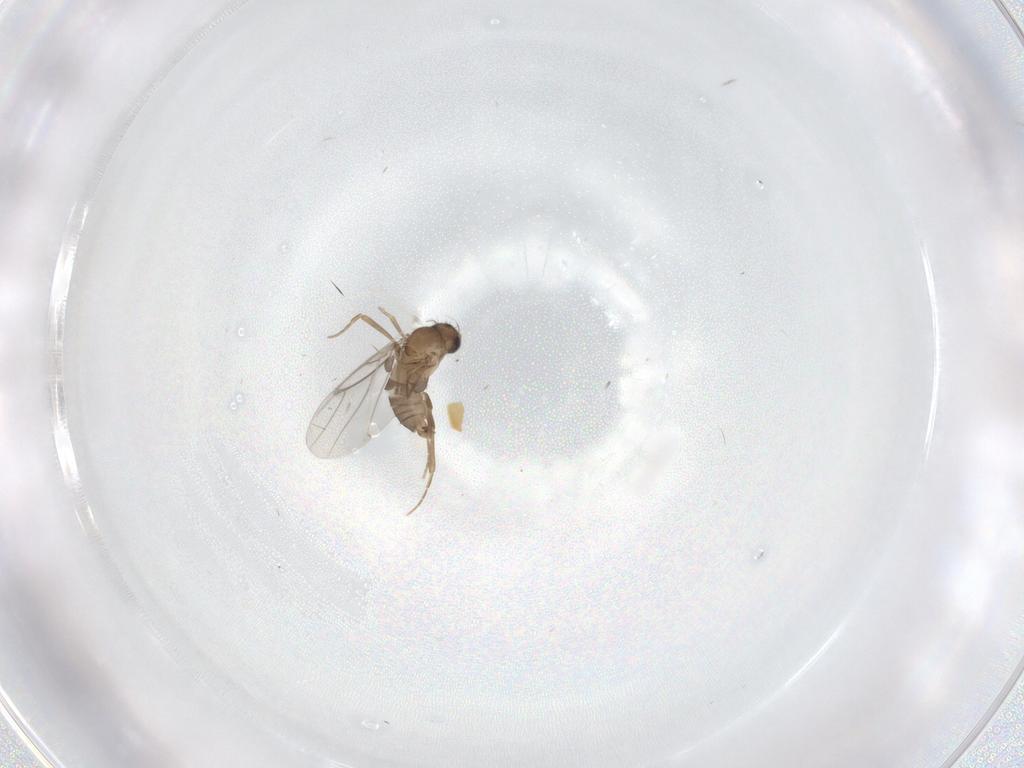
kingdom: Animalia
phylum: Arthropoda
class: Insecta
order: Diptera
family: Cecidomyiidae
